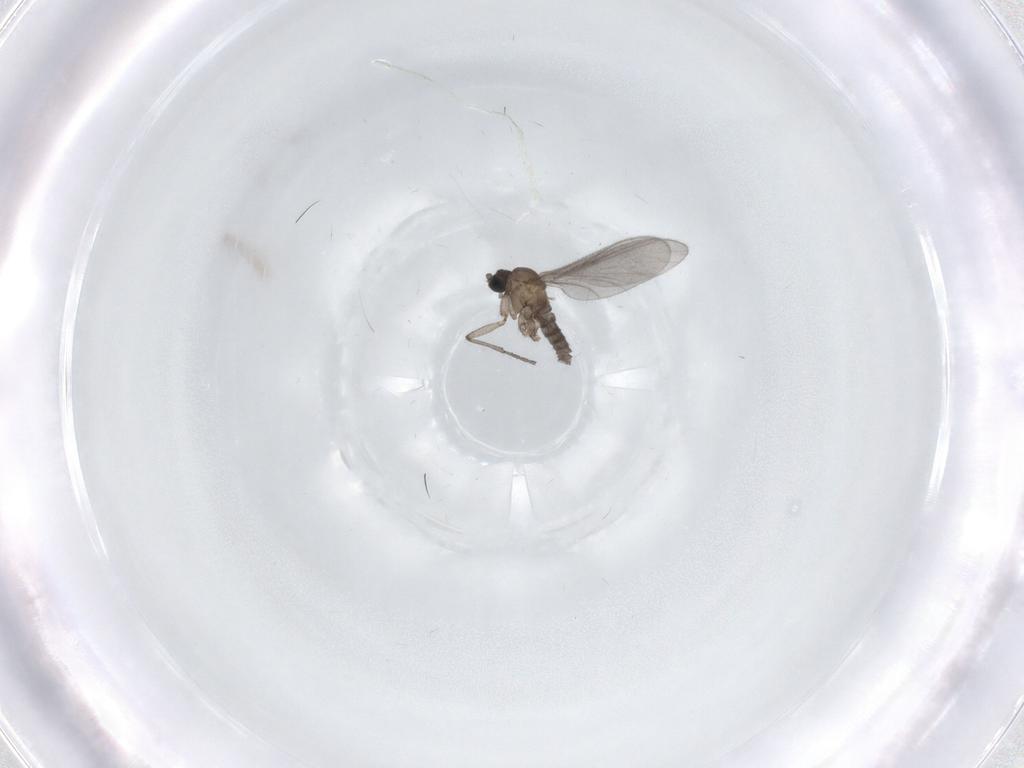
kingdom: Animalia
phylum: Arthropoda
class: Insecta
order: Diptera
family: Sciaridae
